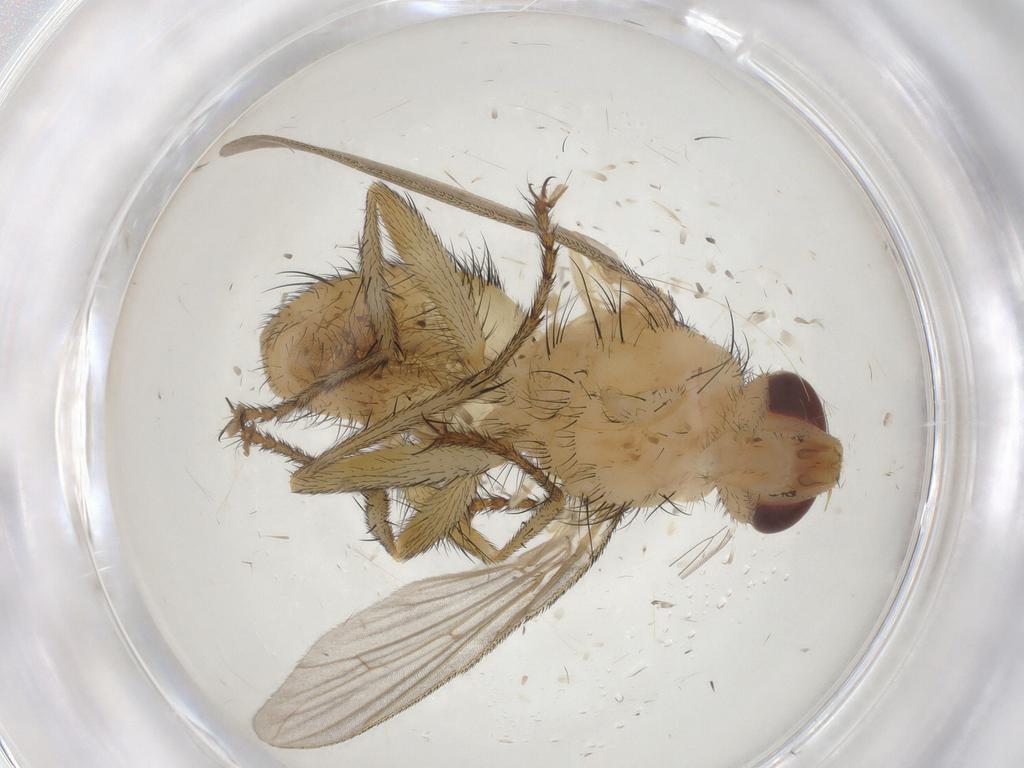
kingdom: Animalia
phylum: Arthropoda
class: Insecta
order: Diptera
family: Tachinidae
